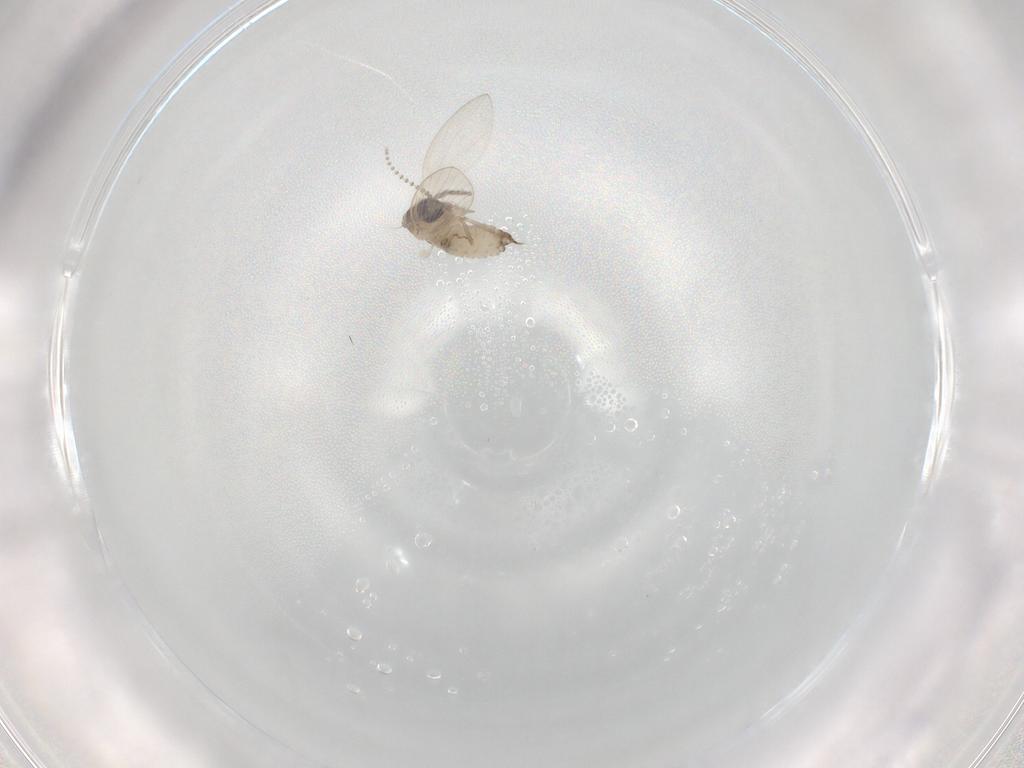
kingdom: Animalia
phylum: Arthropoda
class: Insecta
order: Diptera
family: Psychodidae
